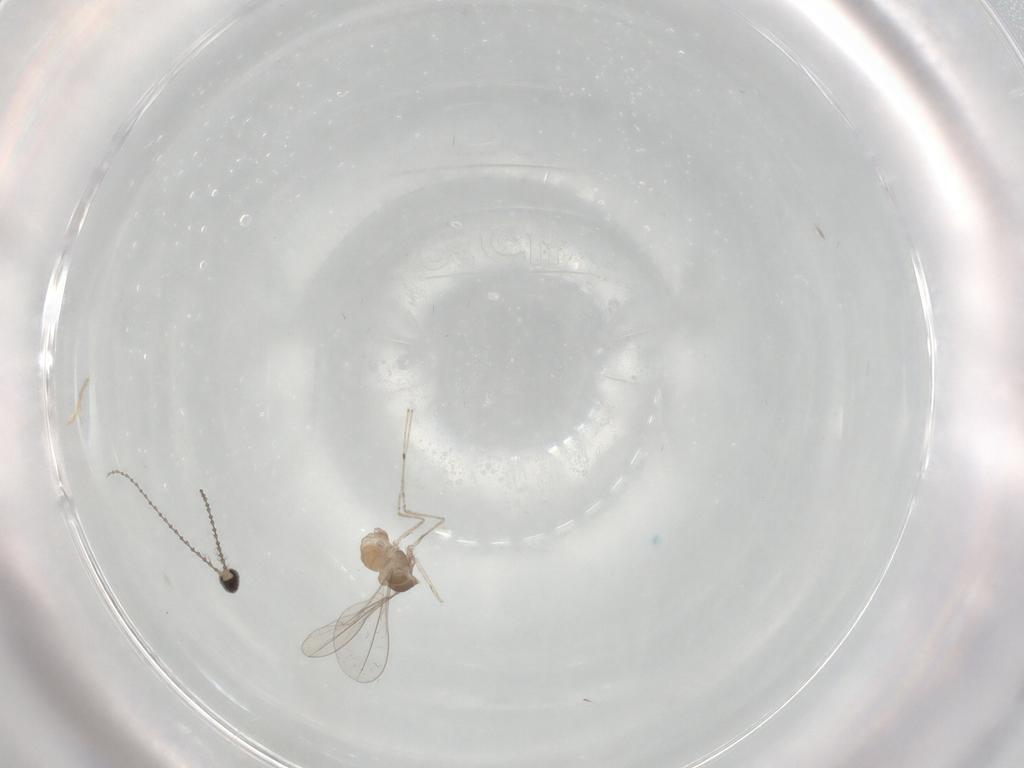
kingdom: Animalia
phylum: Arthropoda
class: Insecta
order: Diptera
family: Cecidomyiidae
